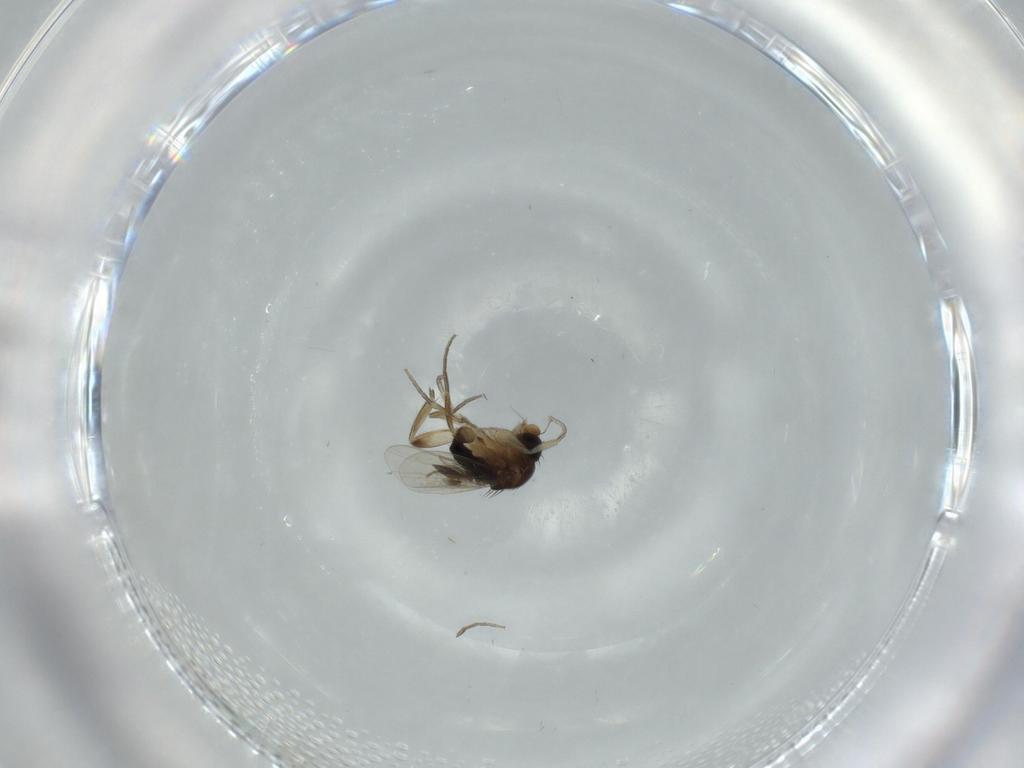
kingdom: Animalia
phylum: Arthropoda
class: Insecta
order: Diptera
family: Phoridae
